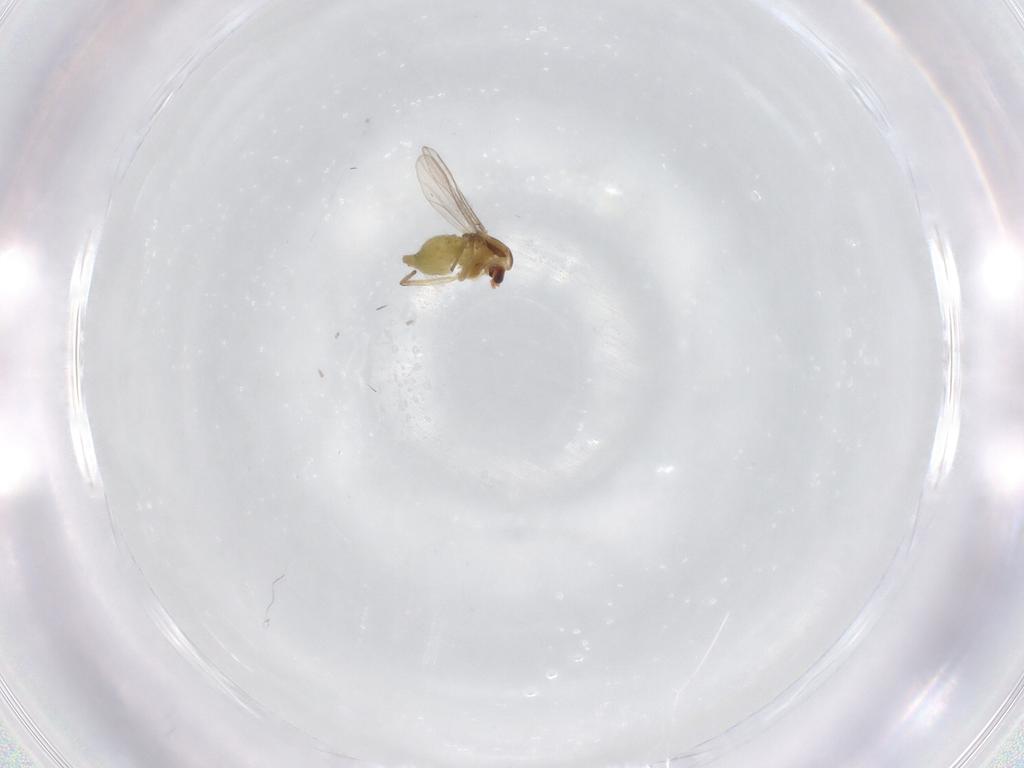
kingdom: Animalia
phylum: Arthropoda
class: Insecta
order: Diptera
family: Chironomidae
